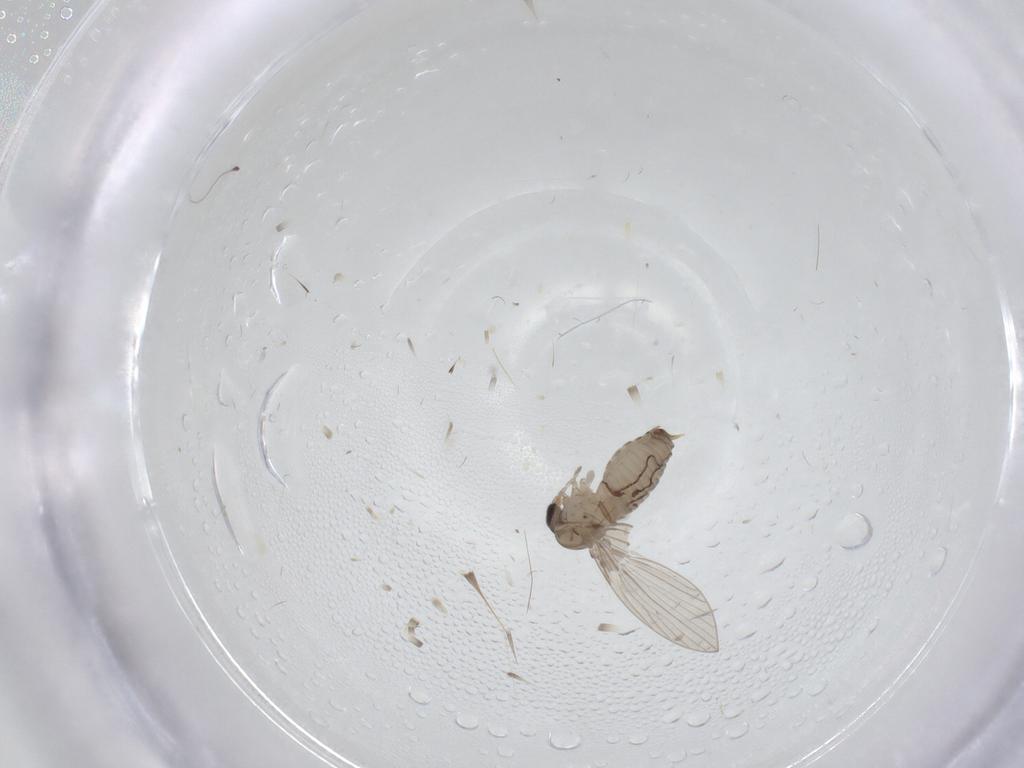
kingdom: Animalia
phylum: Arthropoda
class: Insecta
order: Diptera
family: Psychodidae
